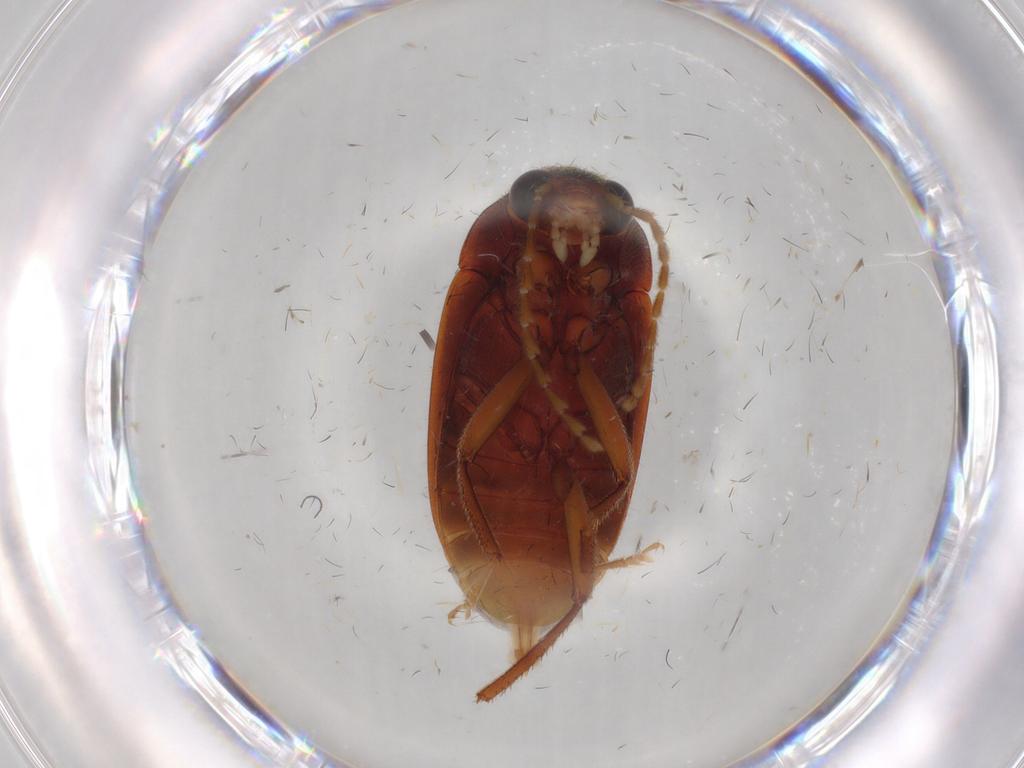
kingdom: Animalia
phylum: Arthropoda
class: Insecta
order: Coleoptera
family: Ptilodactylidae
